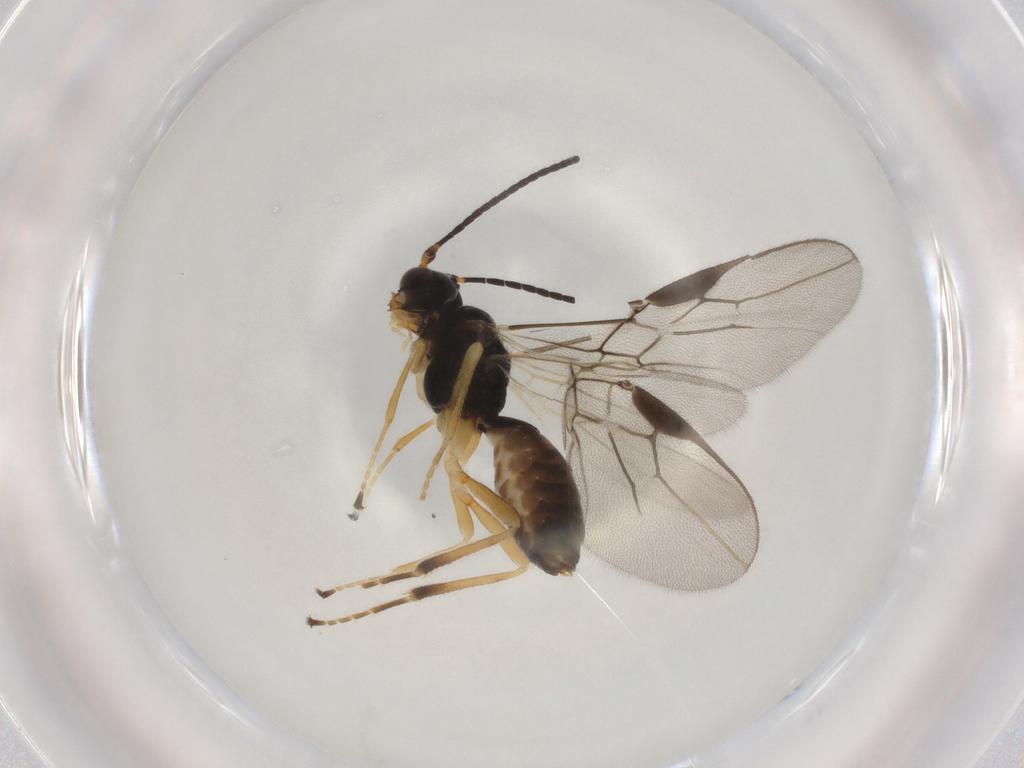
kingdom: Animalia
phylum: Arthropoda
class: Insecta
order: Hymenoptera
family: Braconidae
